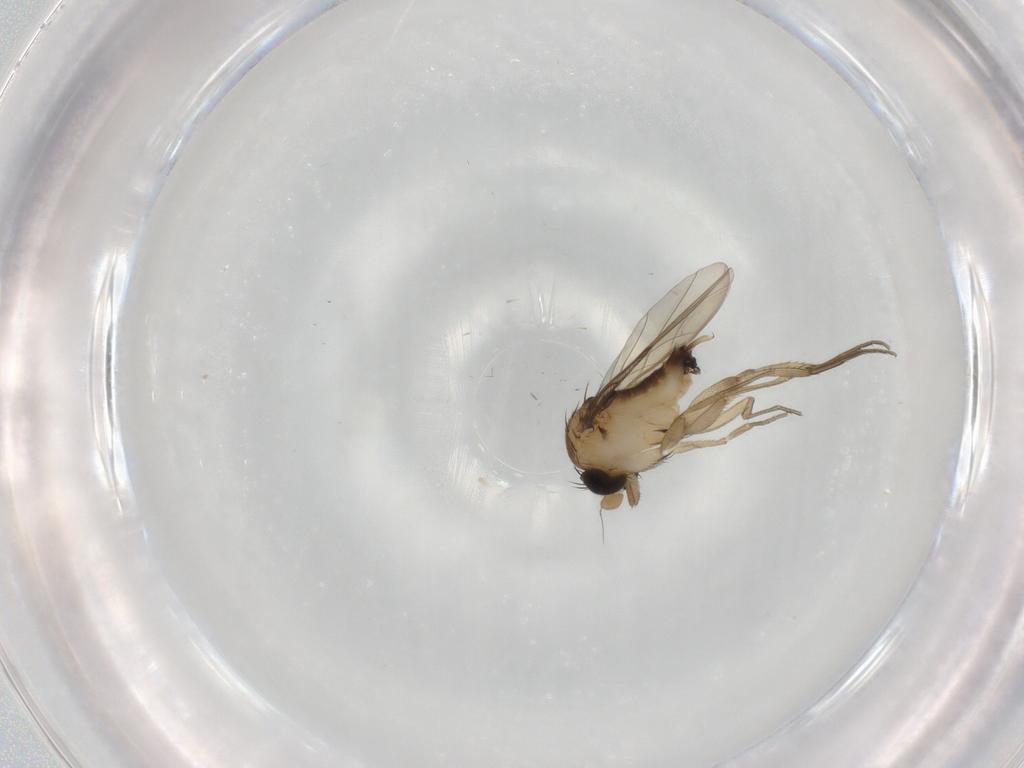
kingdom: Animalia
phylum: Arthropoda
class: Insecta
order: Diptera
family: Phoridae
